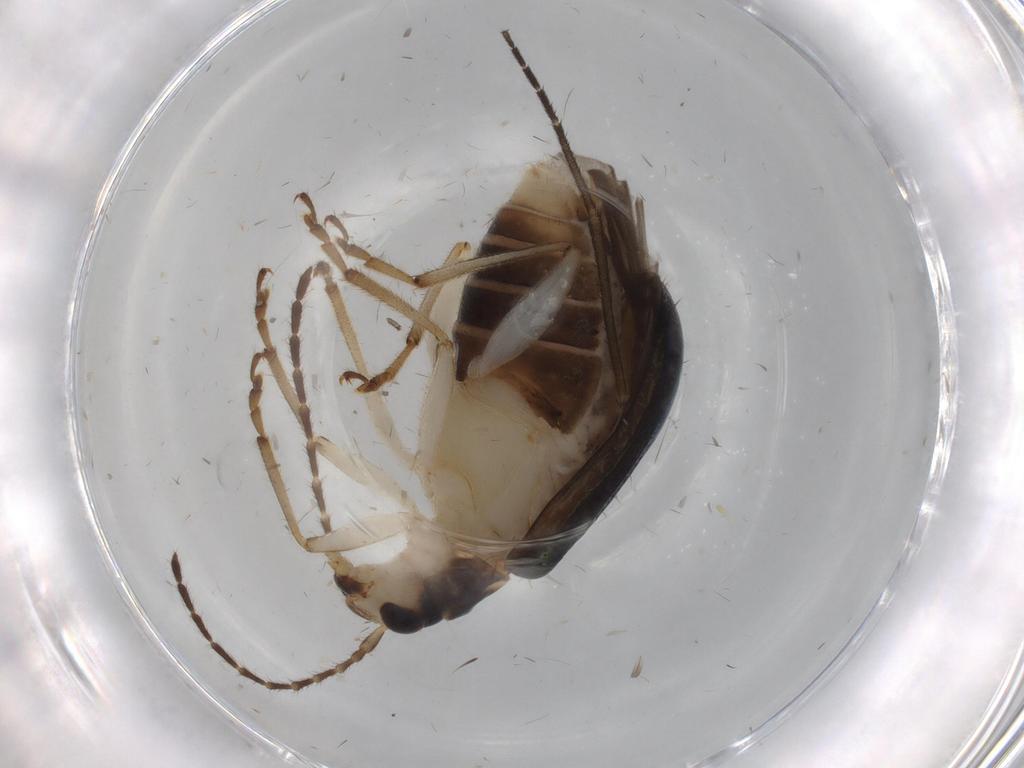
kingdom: Animalia
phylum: Arthropoda
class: Insecta
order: Coleoptera
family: Chrysomelidae
